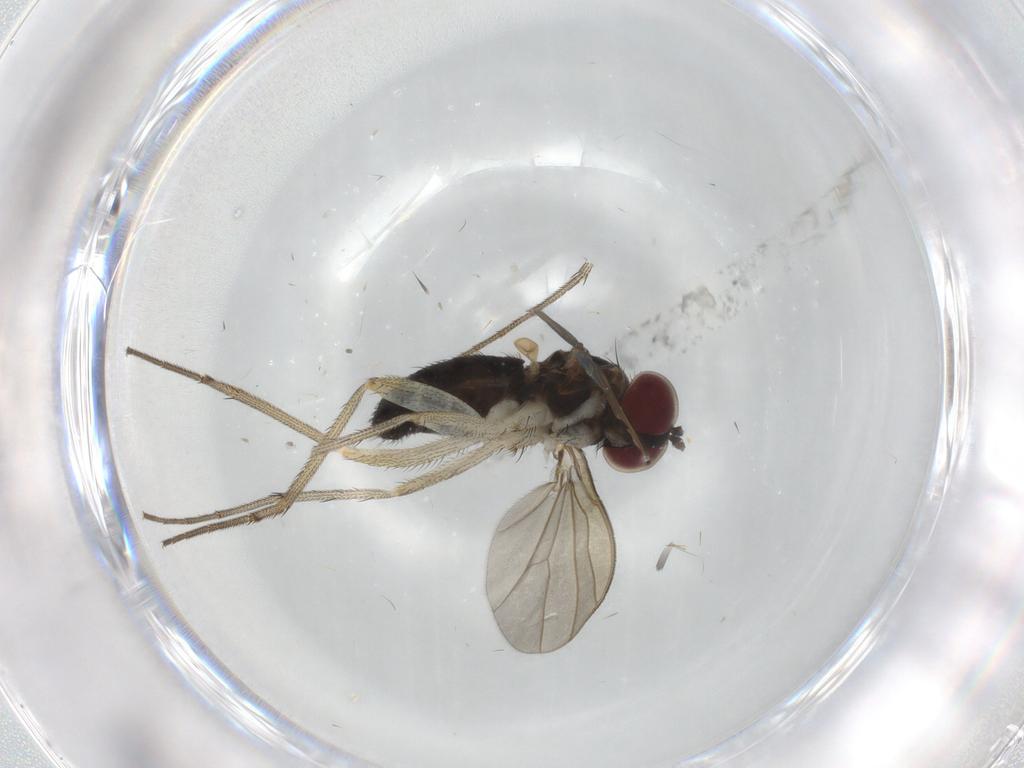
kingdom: Animalia
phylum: Arthropoda
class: Insecta
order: Diptera
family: Dolichopodidae
